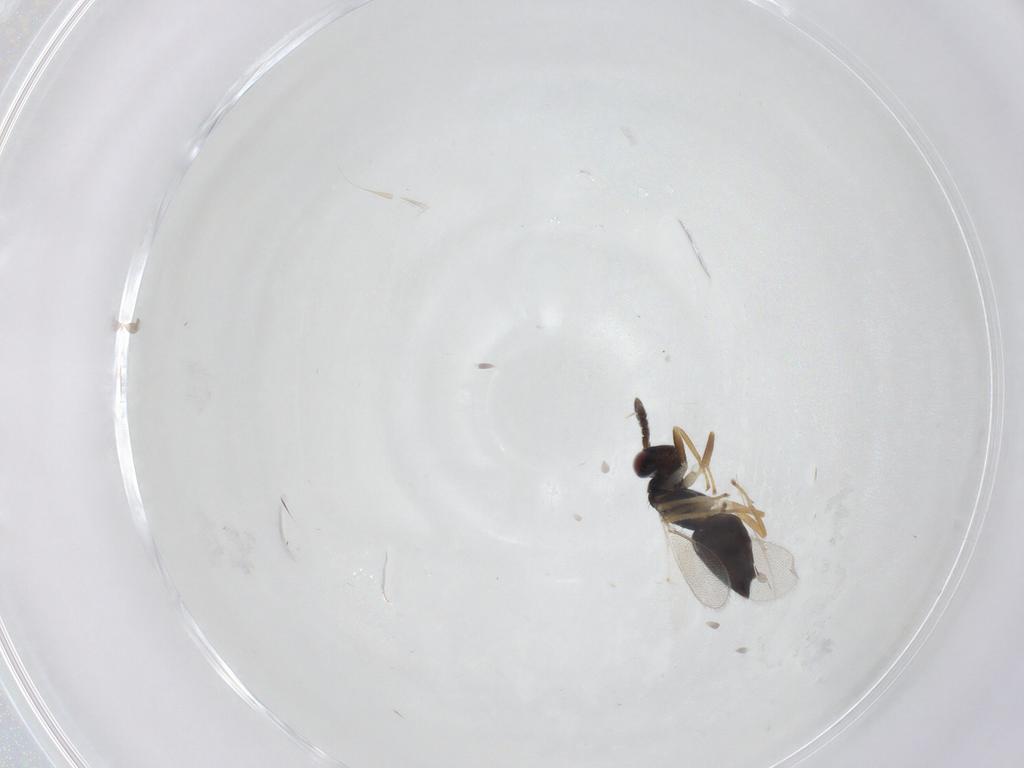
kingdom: Animalia
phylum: Arthropoda
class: Insecta
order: Hymenoptera
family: Eulophidae
